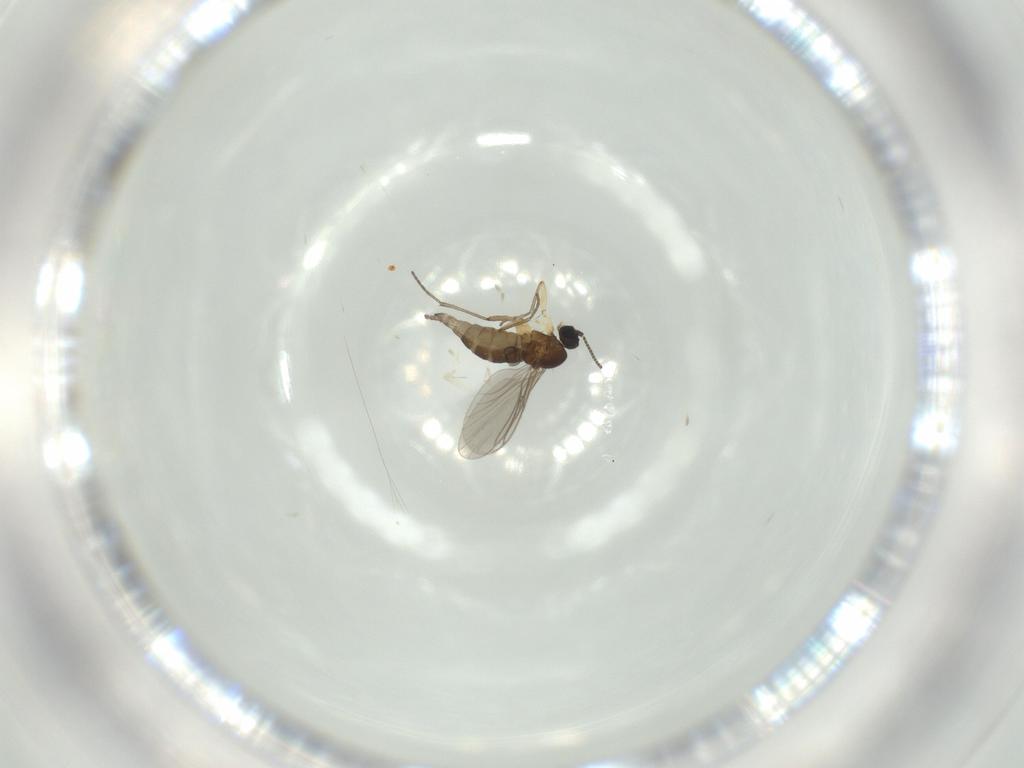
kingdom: Animalia
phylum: Arthropoda
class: Insecta
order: Diptera
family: Sciaridae
